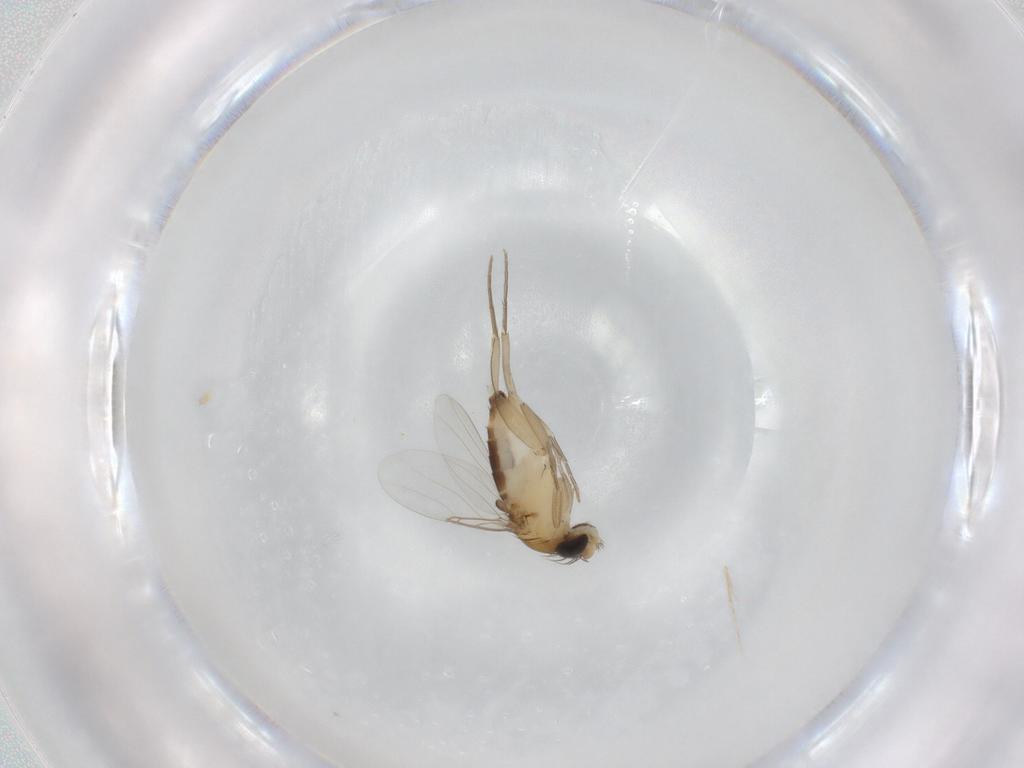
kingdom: Animalia
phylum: Arthropoda
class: Insecta
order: Diptera
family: Phoridae
